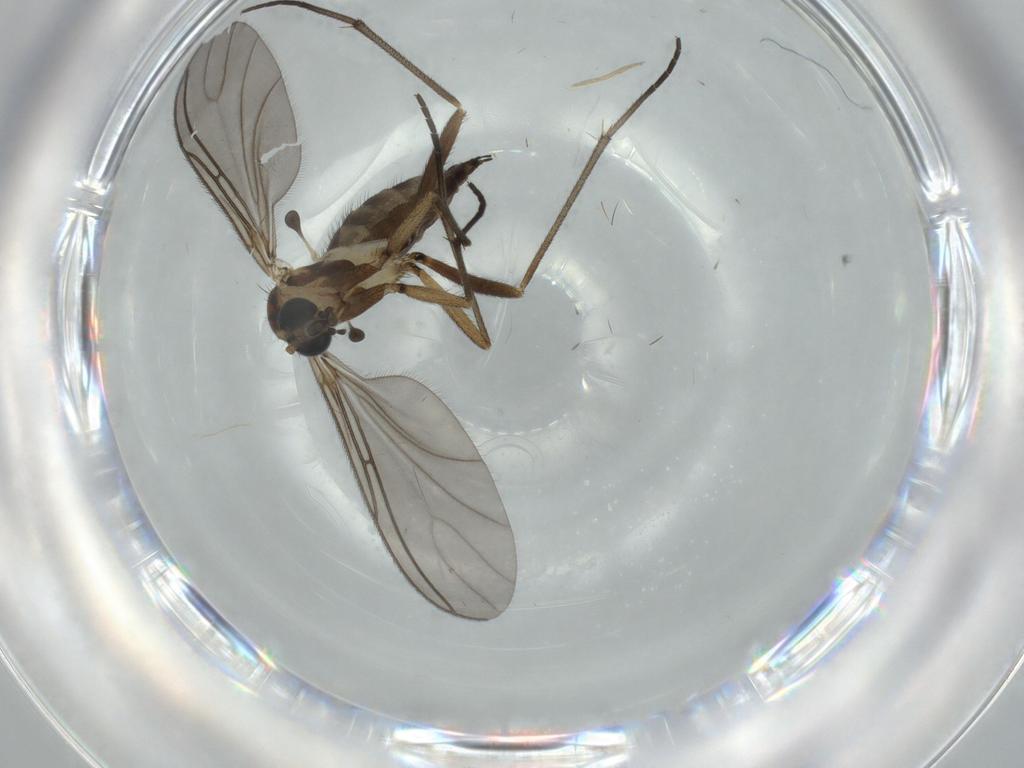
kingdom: Animalia
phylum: Arthropoda
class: Insecta
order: Diptera
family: Sciaridae
